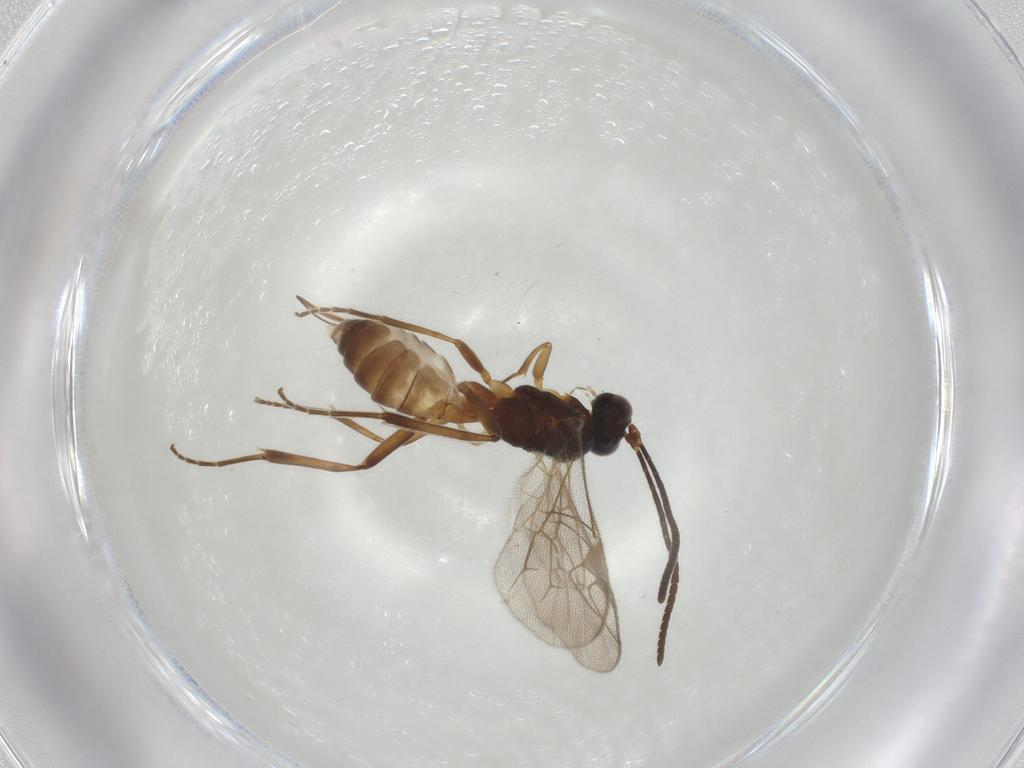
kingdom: Animalia
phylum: Arthropoda
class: Insecta
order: Hymenoptera
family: Ichneumonidae
